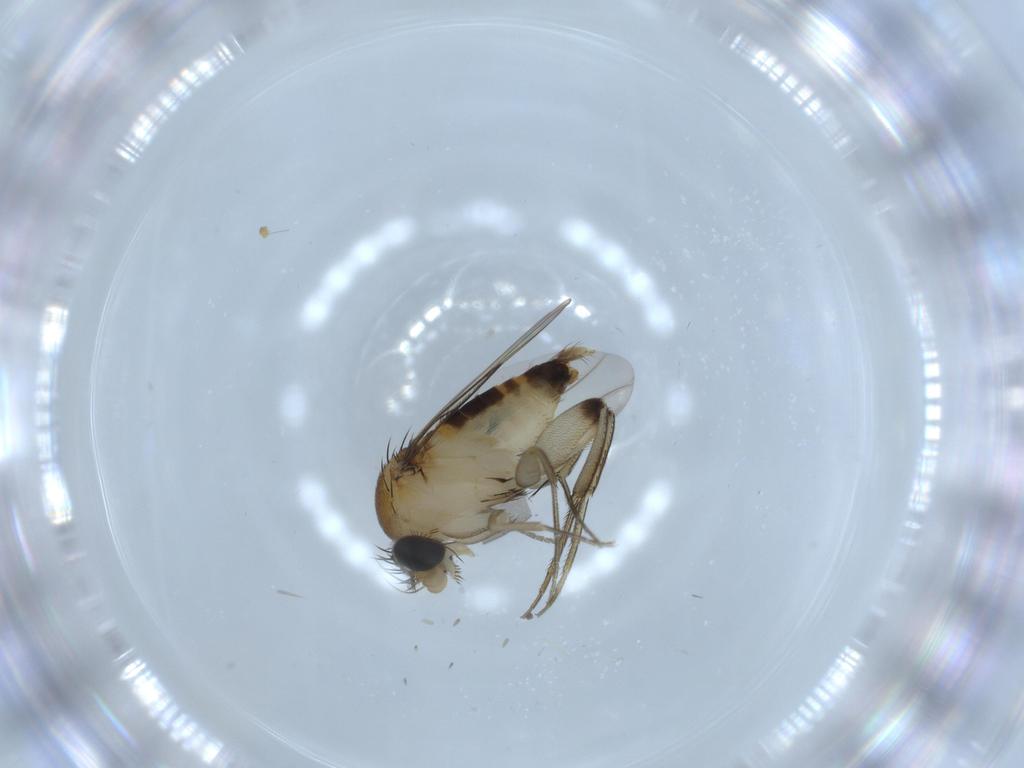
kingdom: Animalia
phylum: Arthropoda
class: Insecta
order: Diptera
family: Phoridae
